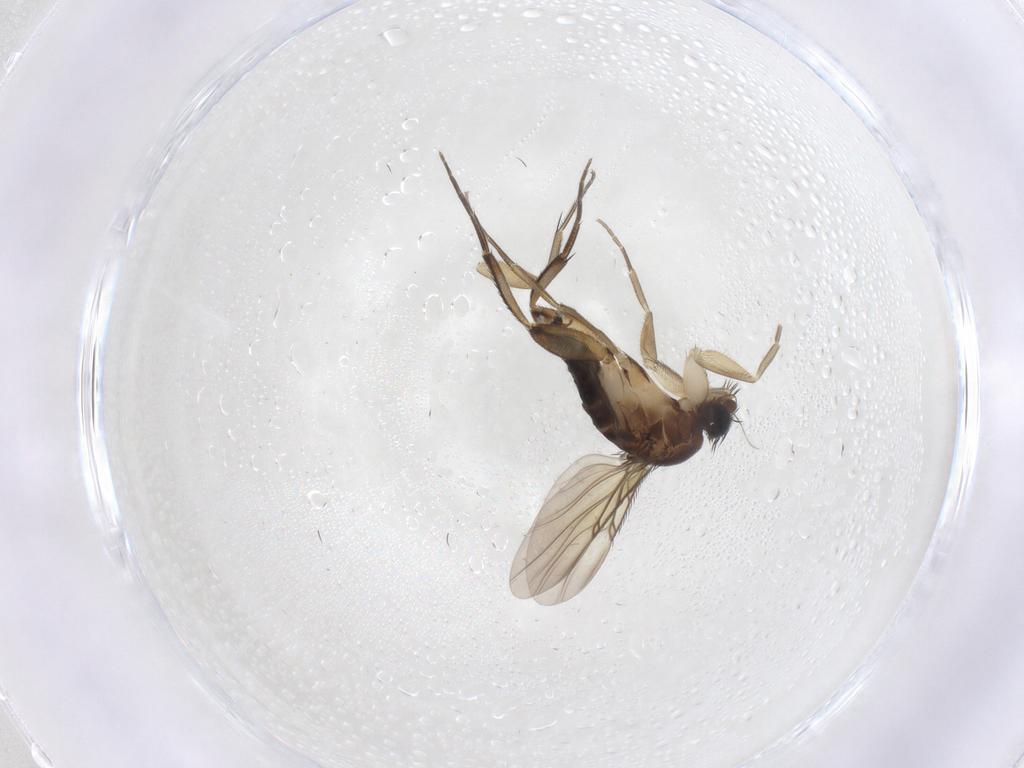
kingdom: Animalia
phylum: Arthropoda
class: Insecta
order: Diptera
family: Phoridae
